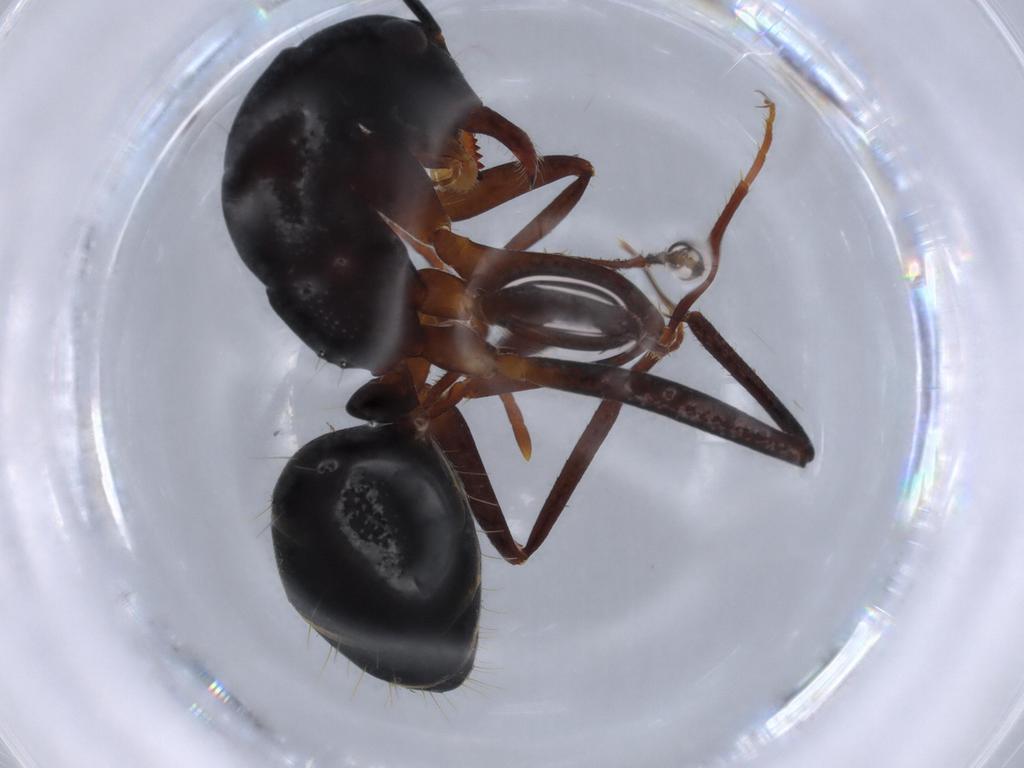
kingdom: Animalia
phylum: Arthropoda
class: Insecta
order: Hymenoptera
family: Formicidae
